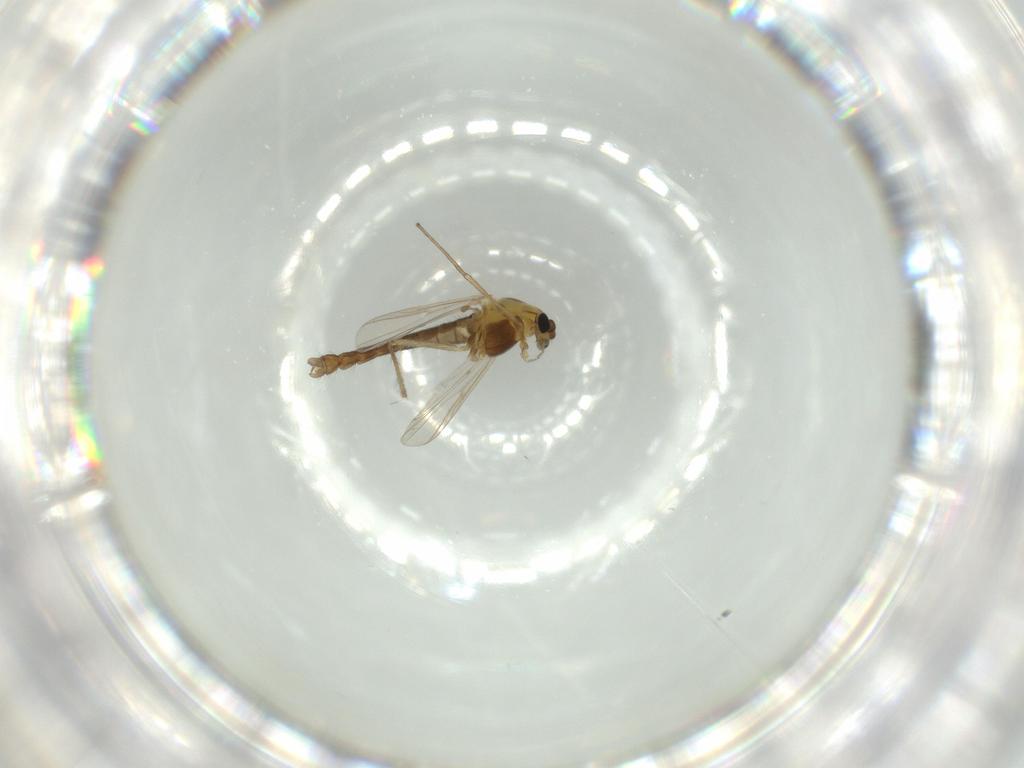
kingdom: Animalia
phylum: Arthropoda
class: Insecta
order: Diptera
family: Chironomidae
